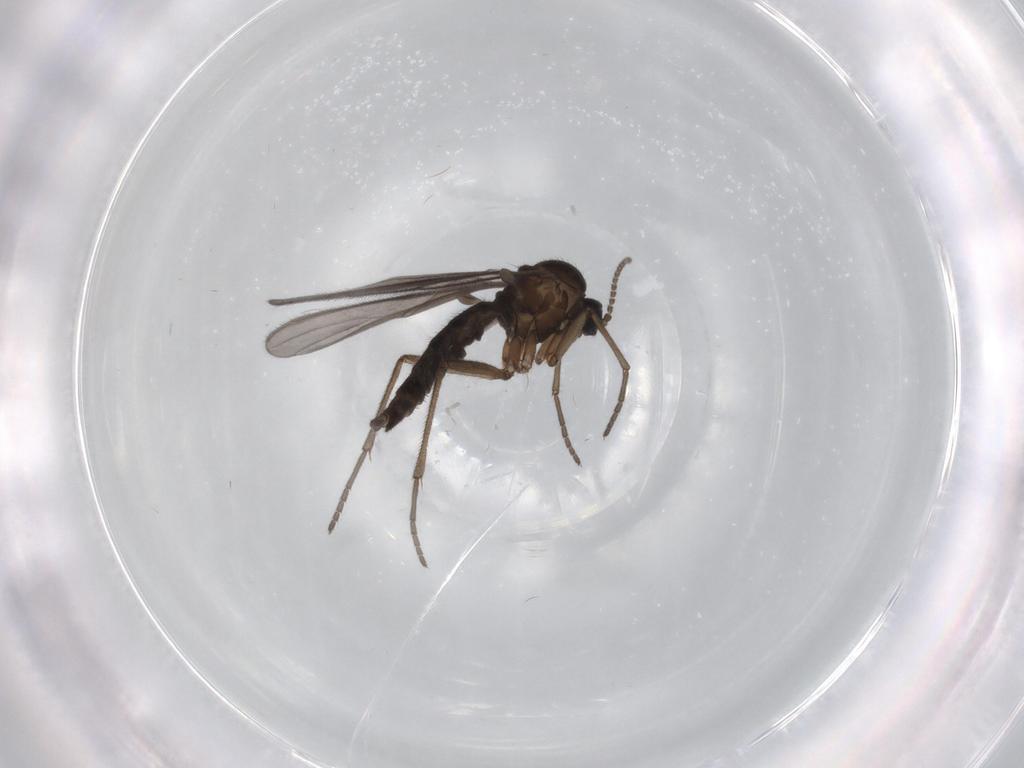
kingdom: Animalia
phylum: Arthropoda
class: Insecta
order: Diptera
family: Sciaridae
